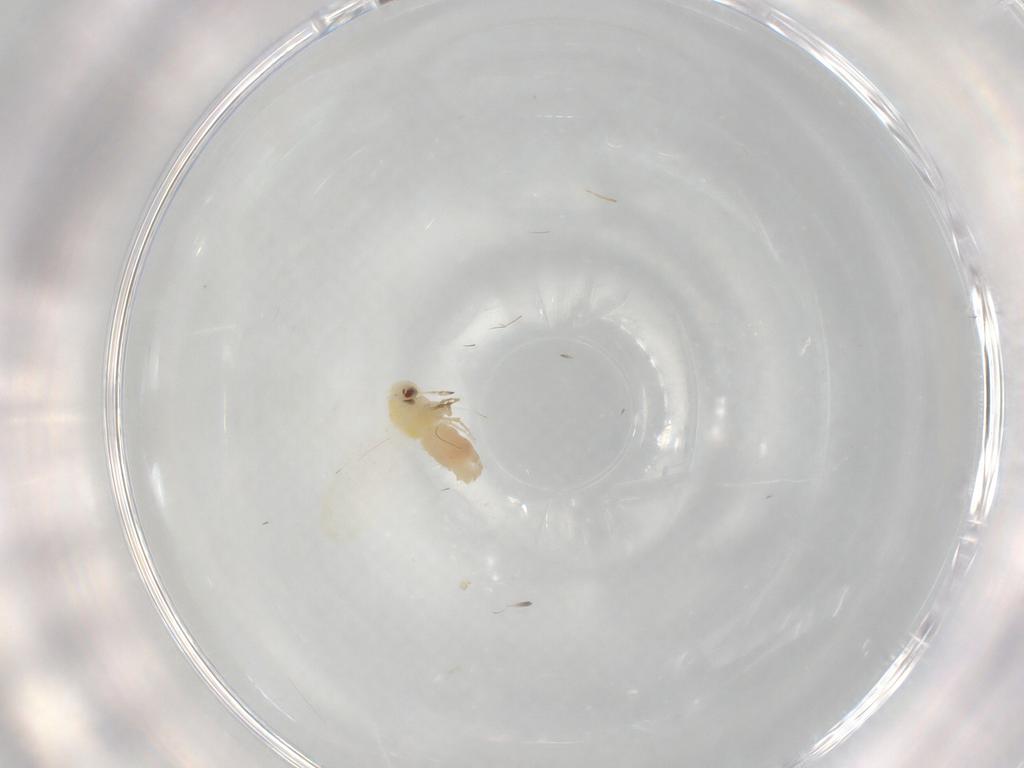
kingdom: Animalia
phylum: Arthropoda
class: Insecta
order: Hemiptera
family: Aleyrodidae
